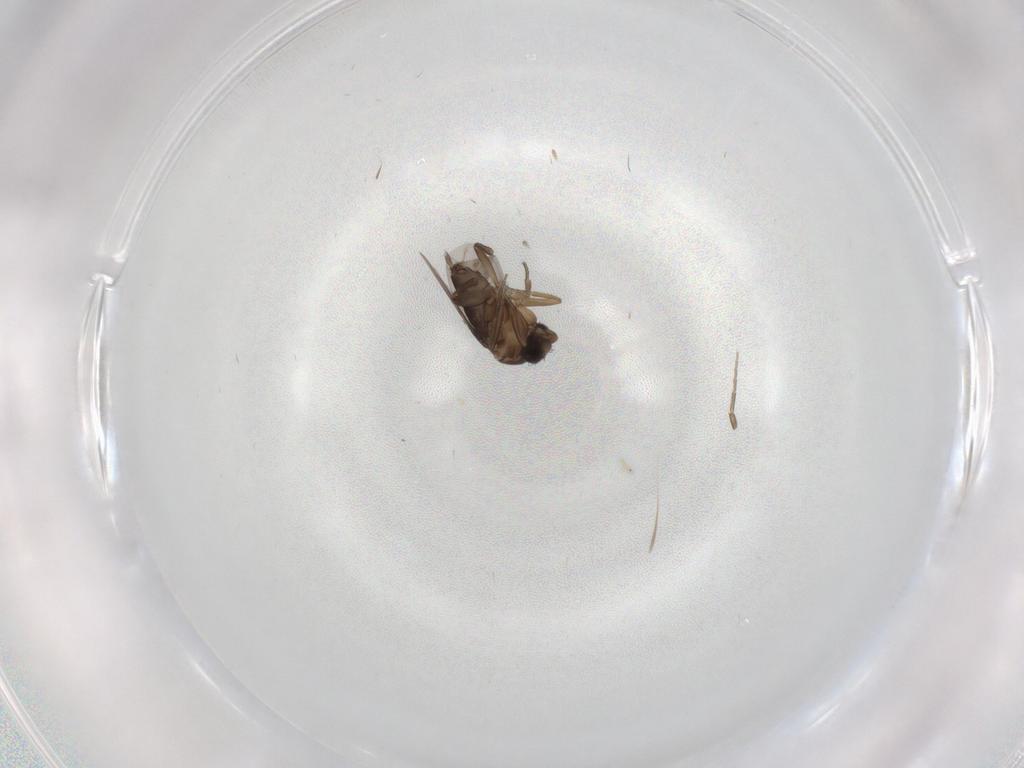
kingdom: Animalia
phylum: Arthropoda
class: Insecta
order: Diptera
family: Phoridae
